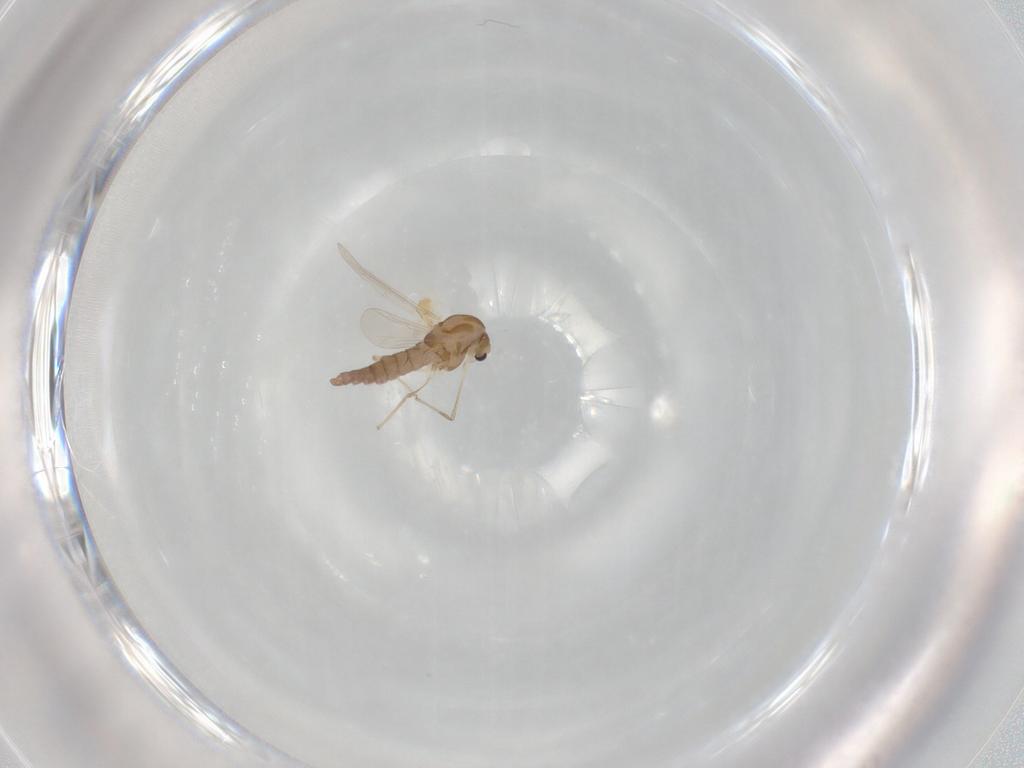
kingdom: Animalia
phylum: Arthropoda
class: Insecta
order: Diptera
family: Chironomidae
